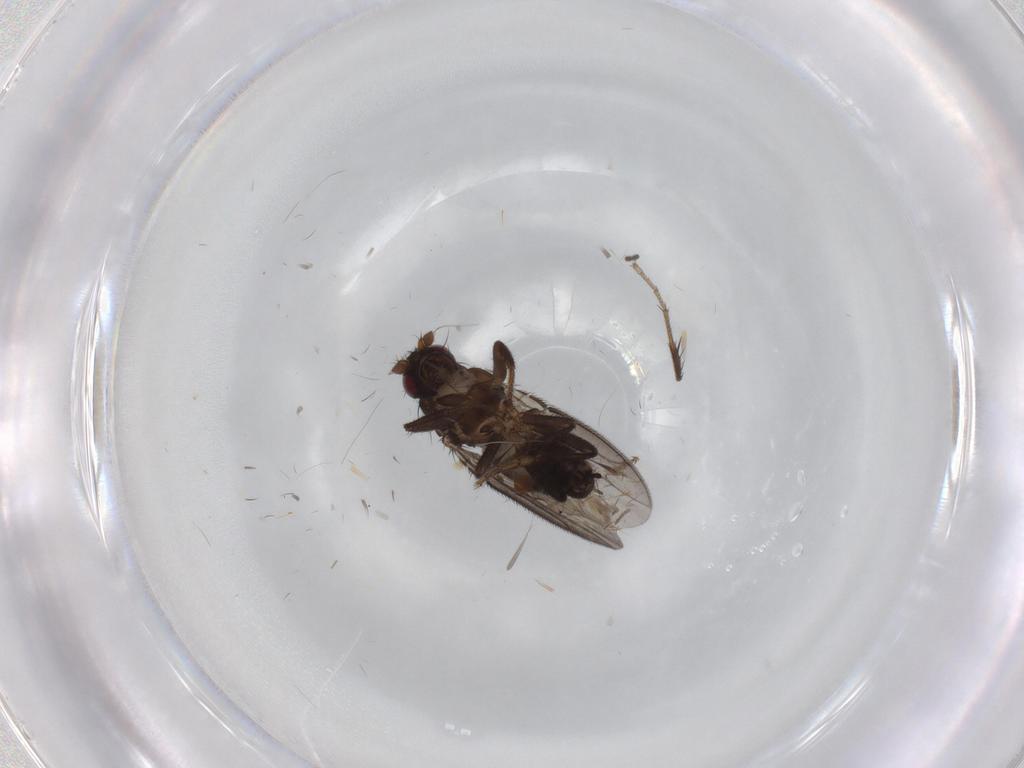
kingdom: Animalia
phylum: Arthropoda
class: Insecta
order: Diptera
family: Sphaeroceridae
